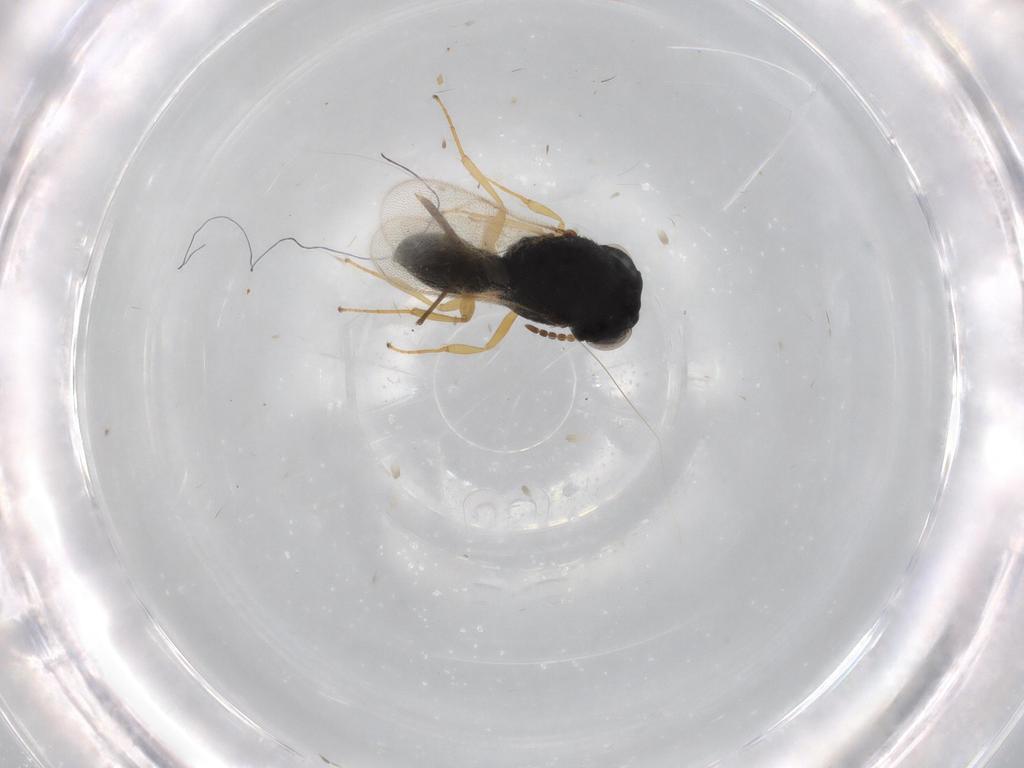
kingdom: Animalia
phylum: Arthropoda
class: Insecta
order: Hymenoptera
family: Scelionidae
